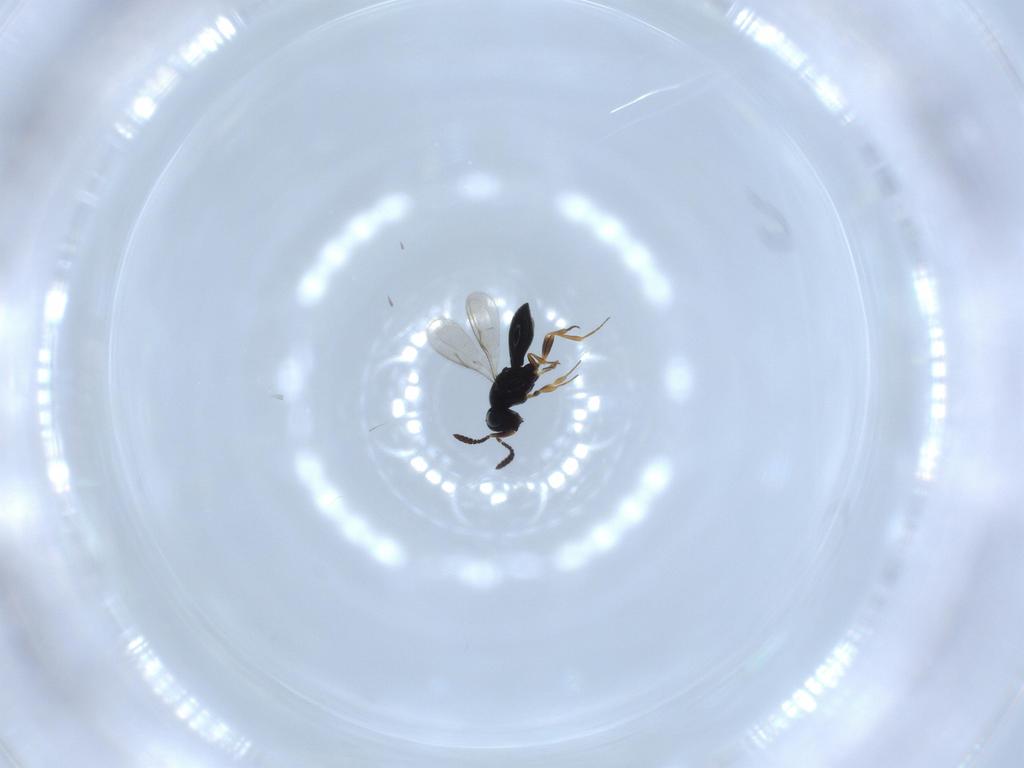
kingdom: Animalia
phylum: Arthropoda
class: Insecta
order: Hymenoptera
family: Scelionidae
